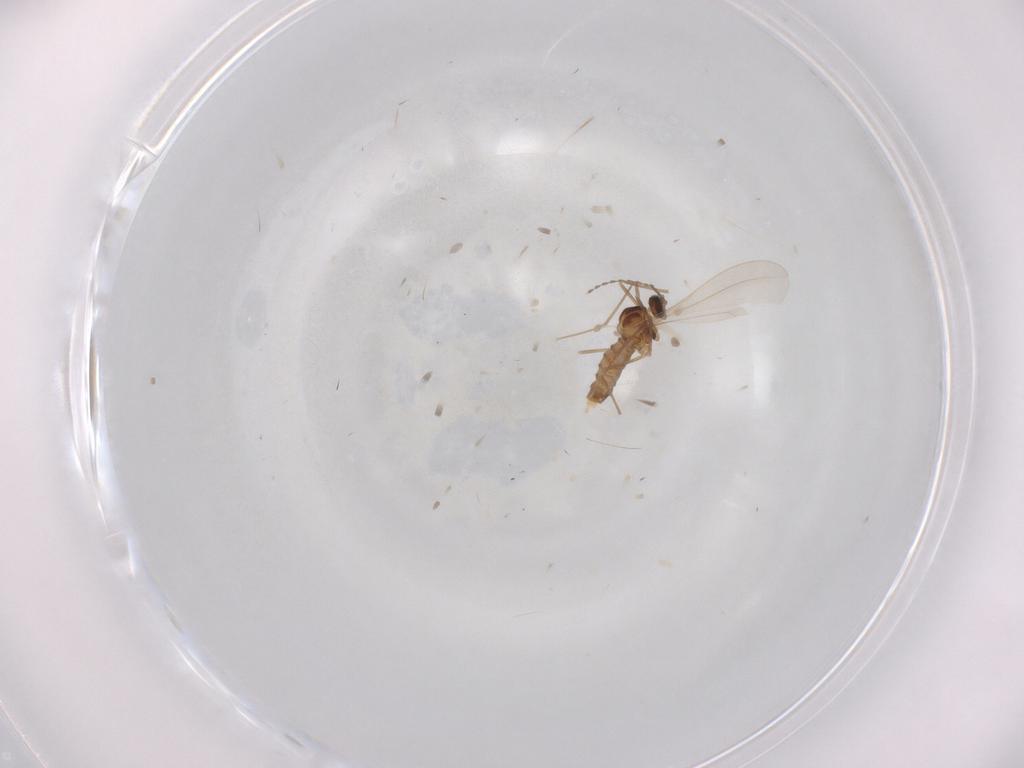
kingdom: Animalia
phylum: Arthropoda
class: Insecta
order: Diptera
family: Cecidomyiidae
